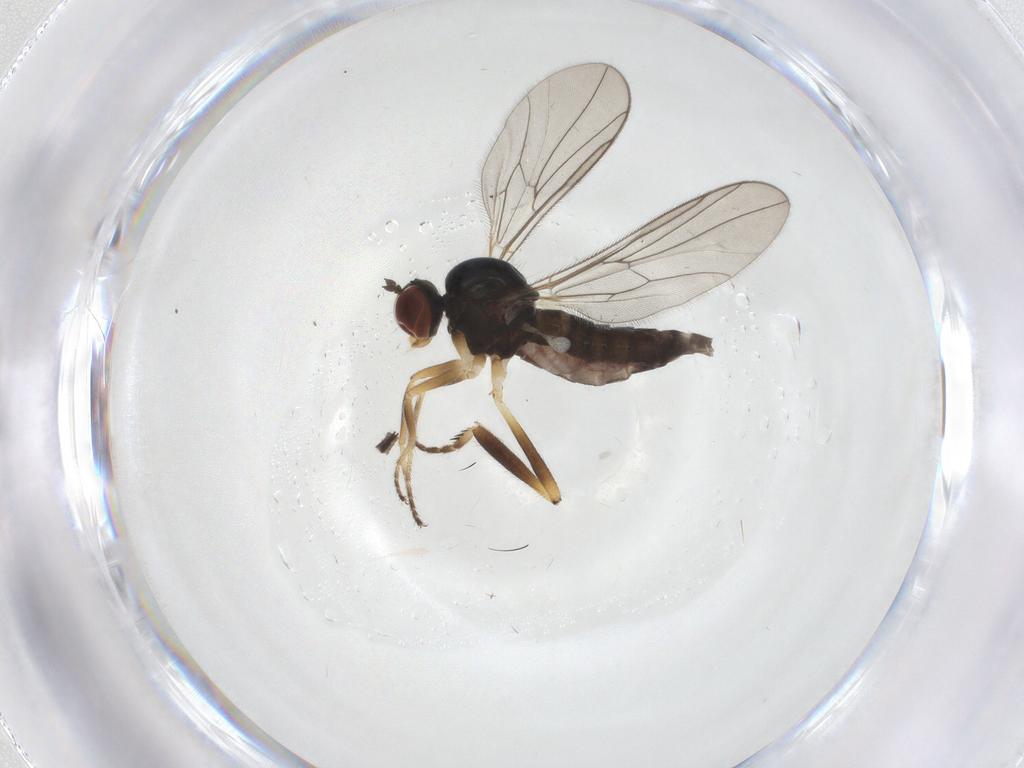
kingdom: Animalia
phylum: Arthropoda
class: Insecta
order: Diptera
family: Hybotidae
